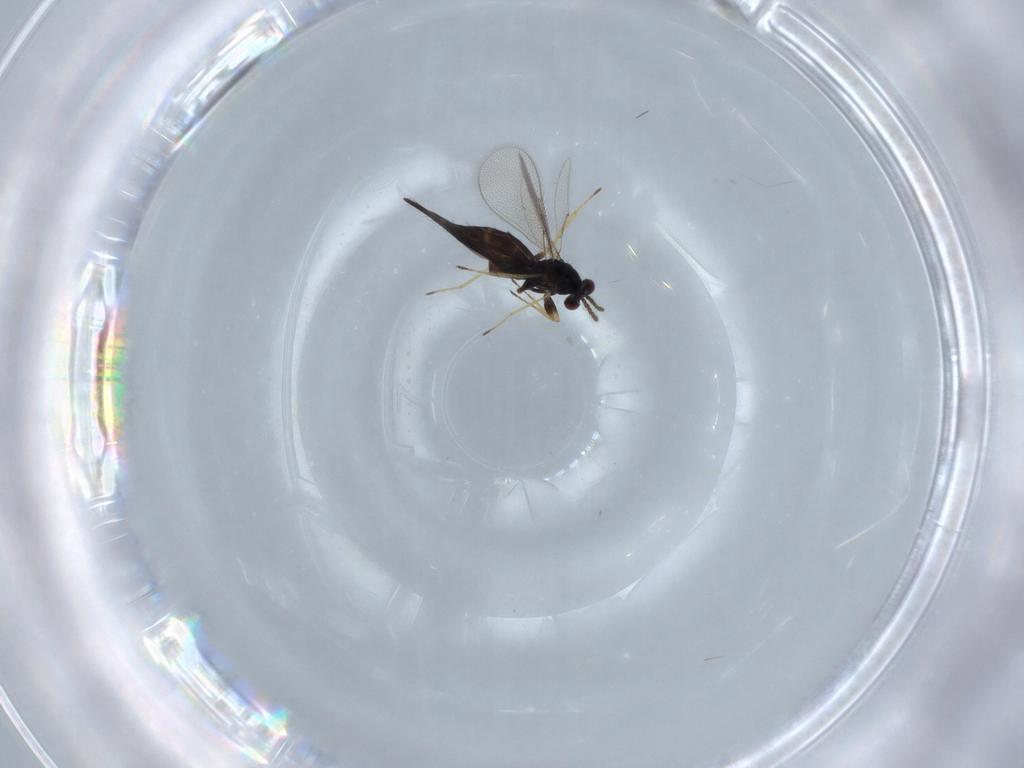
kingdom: Animalia
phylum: Arthropoda
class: Insecta
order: Hymenoptera
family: Eulophidae
